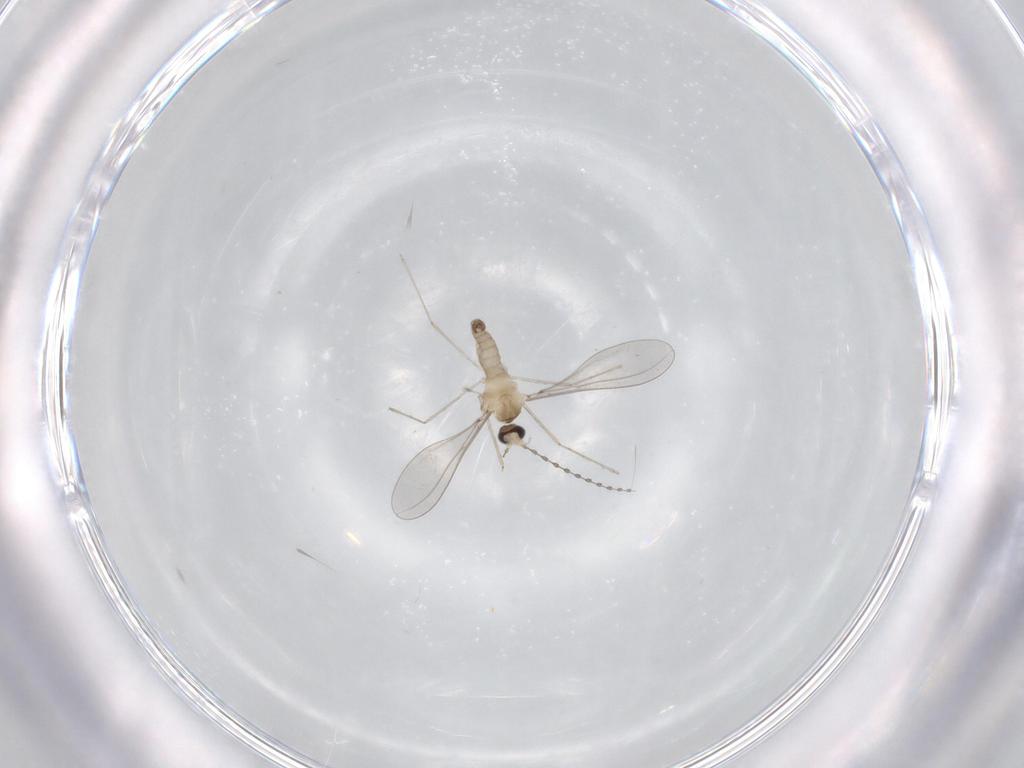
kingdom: Animalia
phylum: Arthropoda
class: Insecta
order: Diptera
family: Cecidomyiidae
